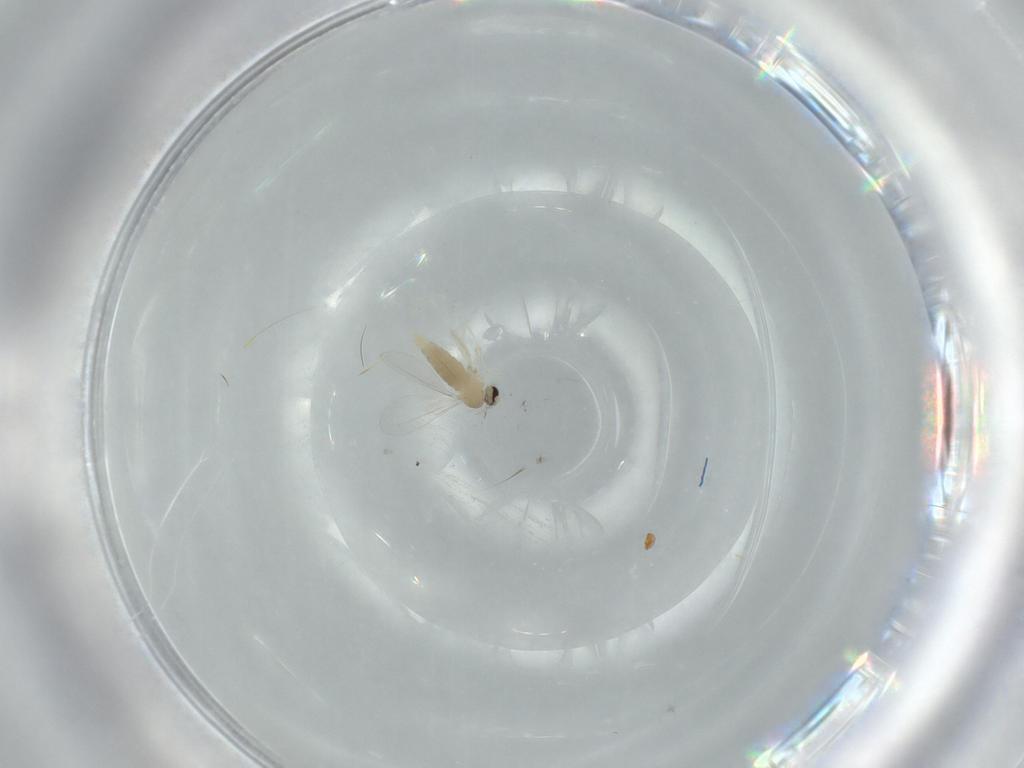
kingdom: Animalia
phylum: Arthropoda
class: Insecta
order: Diptera
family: Cecidomyiidae
